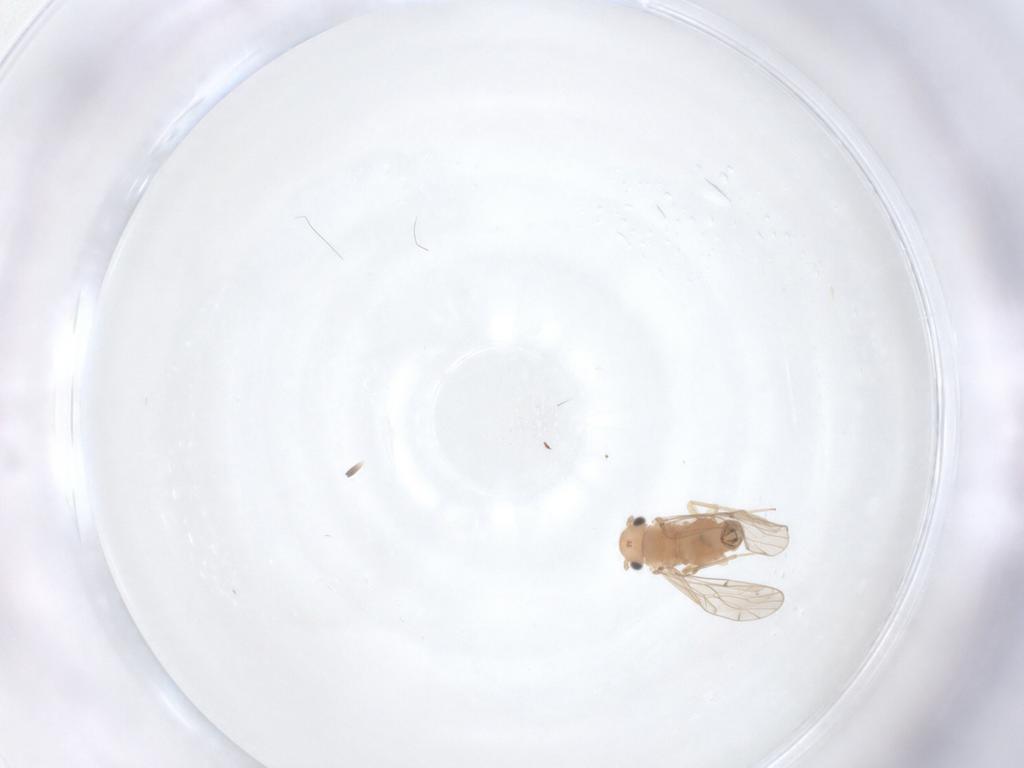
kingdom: Animalia
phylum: Arthropoda
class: Insecta
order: Psocodea
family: Ectopsocidae
